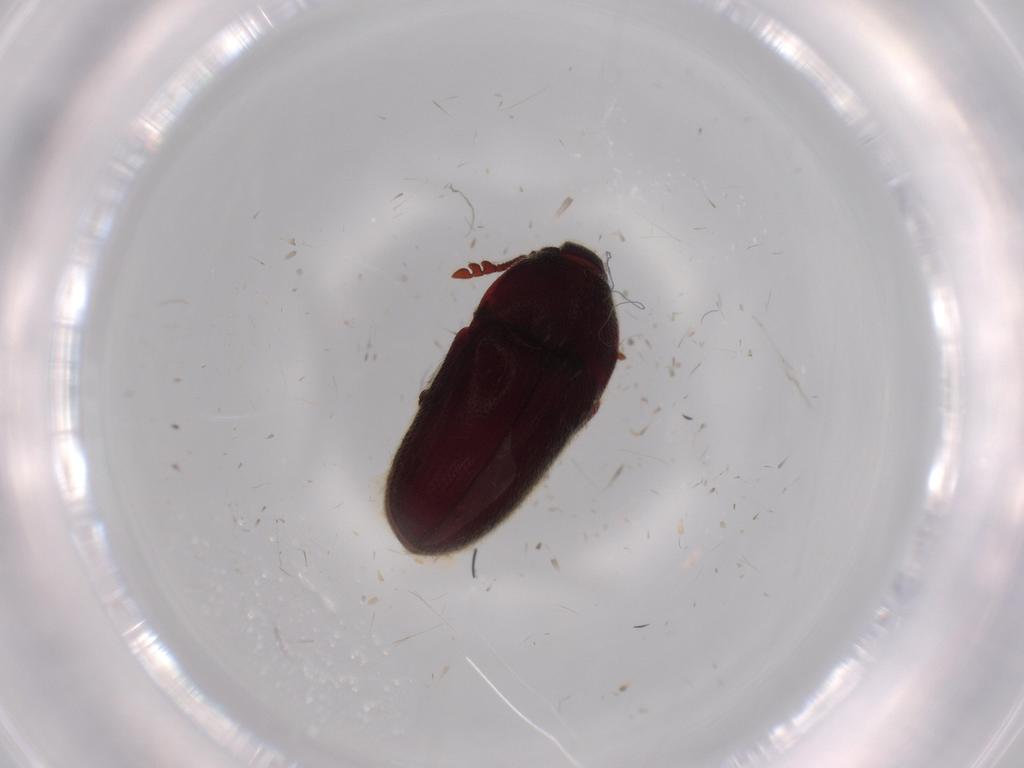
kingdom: Animalia
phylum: Arthropoda
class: Insecta
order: Coleoptera
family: Throscidae
